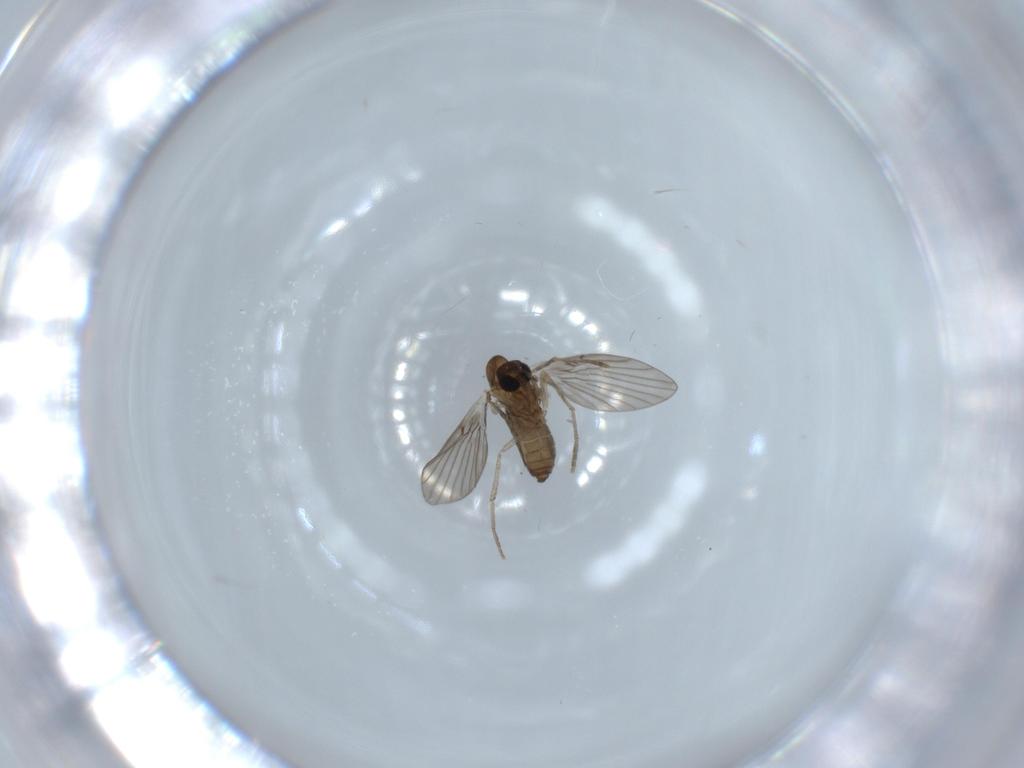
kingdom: Animalia
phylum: Arthropoda
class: Insecta
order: Diptera
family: Psychodidae
